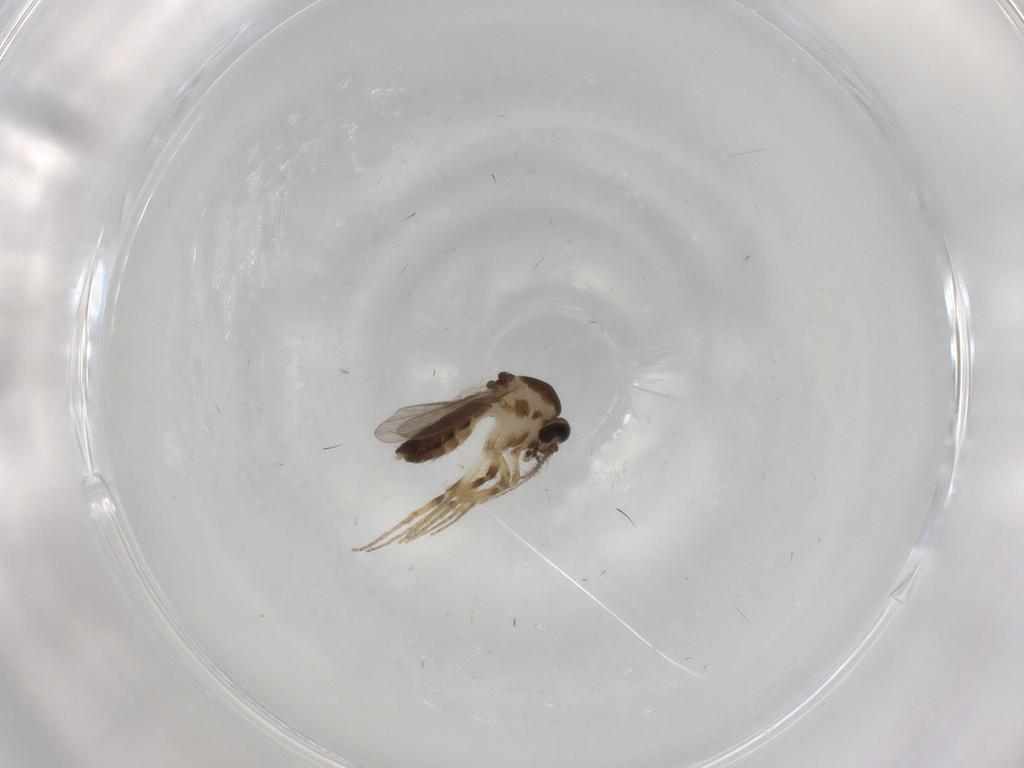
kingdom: Animalia
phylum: Arthropoda
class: Insecta
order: Diptera
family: Ceratopogonidae
